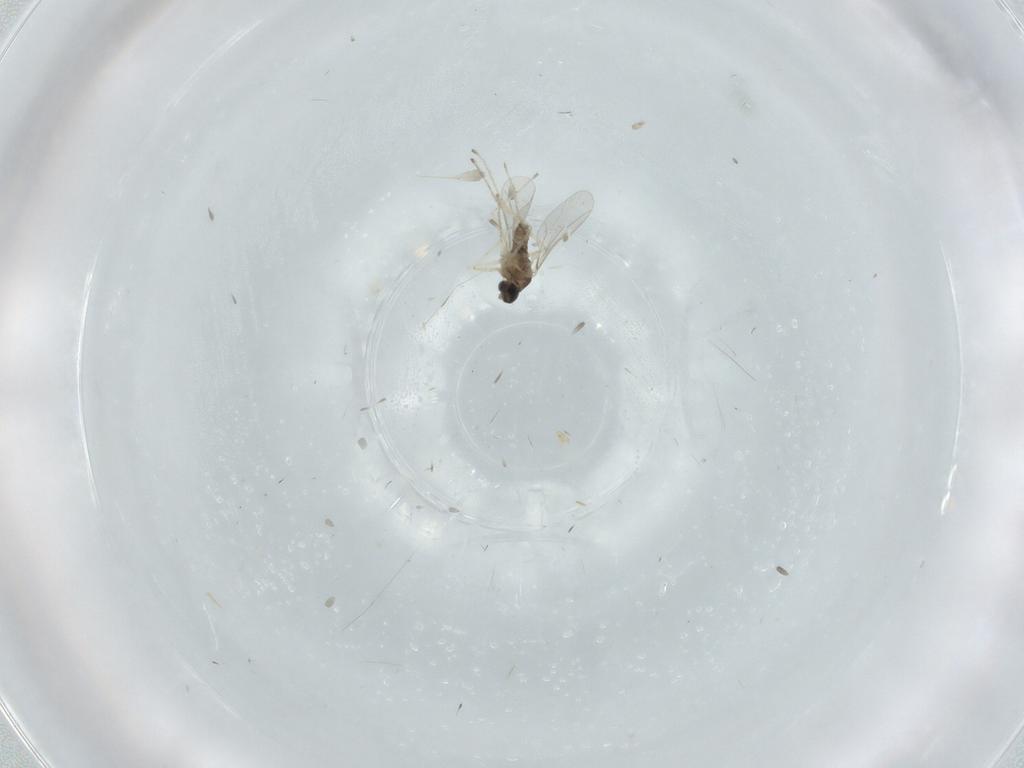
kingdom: Animalia
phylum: Arthropoda
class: Insecta
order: Diptera
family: Cecidomyiidae
